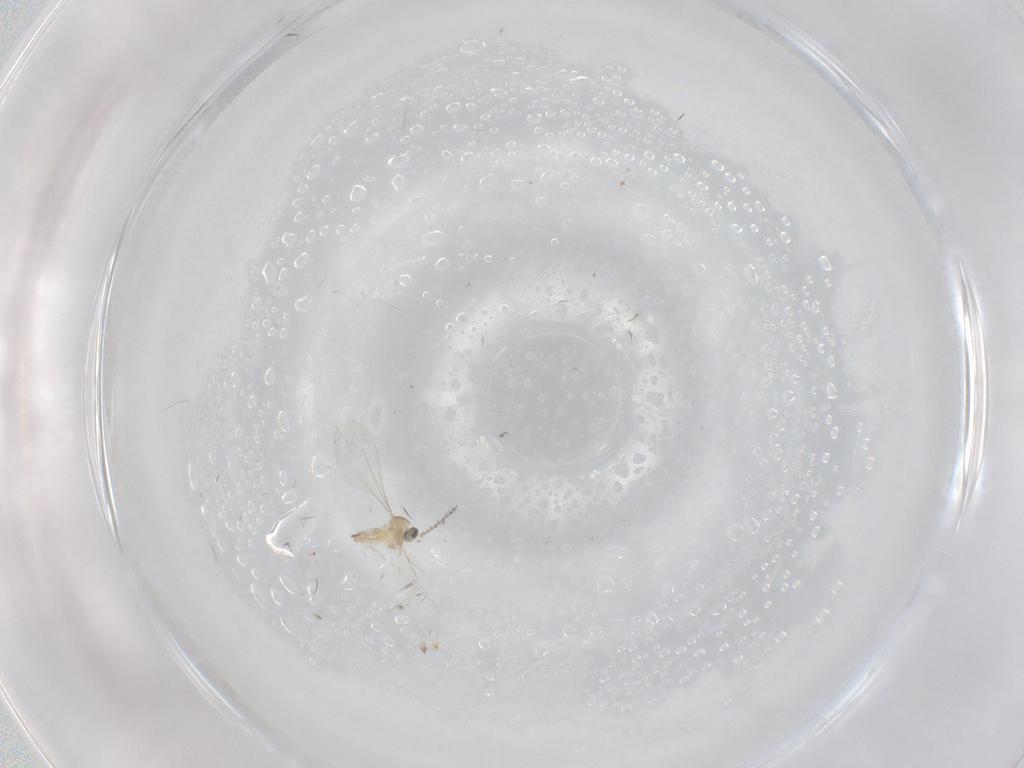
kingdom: Animalia
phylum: Arthropoda
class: Insecta
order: Diptera
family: Cecidomyiidae
